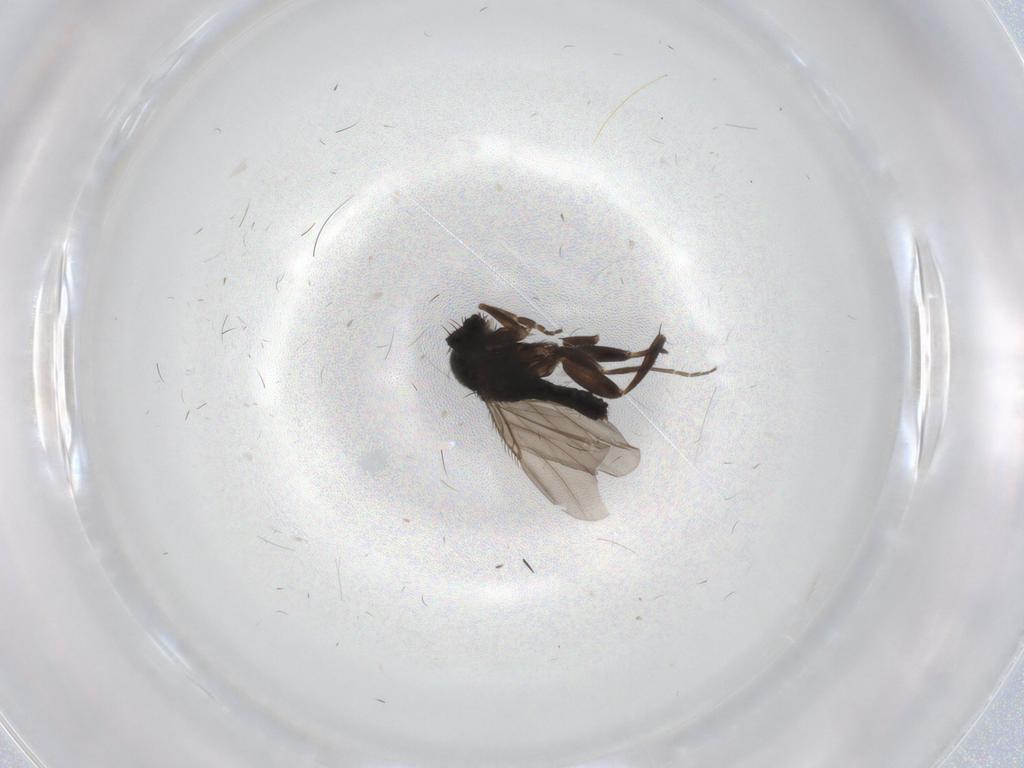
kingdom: Animalia
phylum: Arthropoda
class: Insecta
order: Diptera
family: Phoridae
